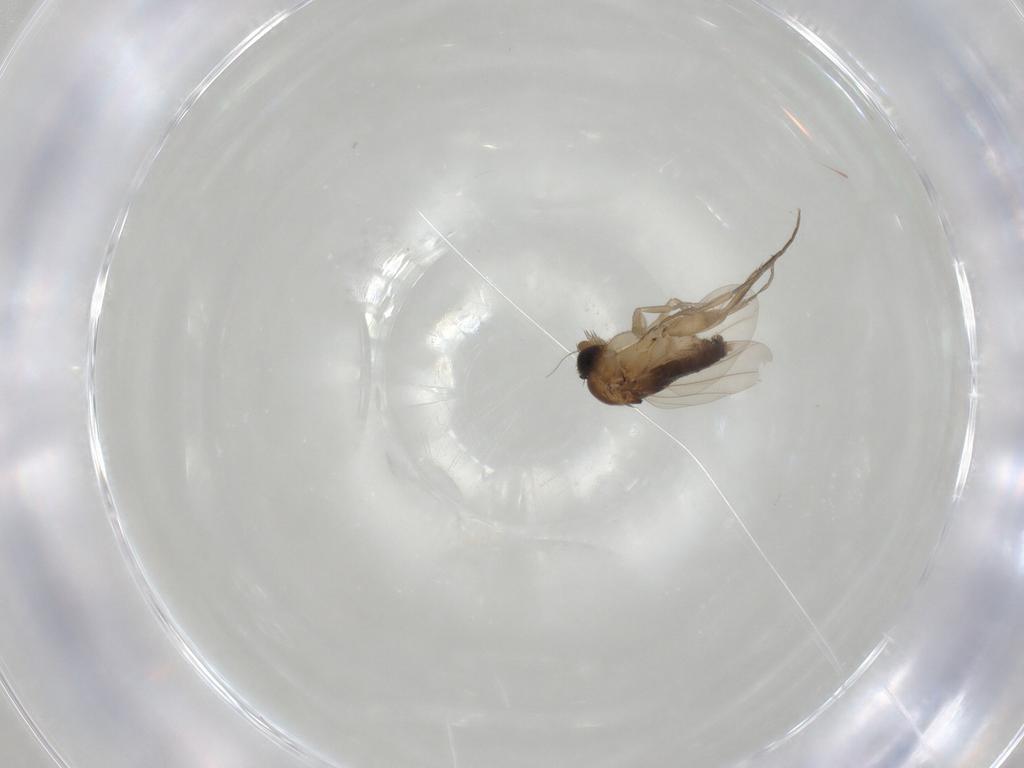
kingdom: Animalia
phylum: Arthropoda
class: Insecta
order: Diptera
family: Phoridae
